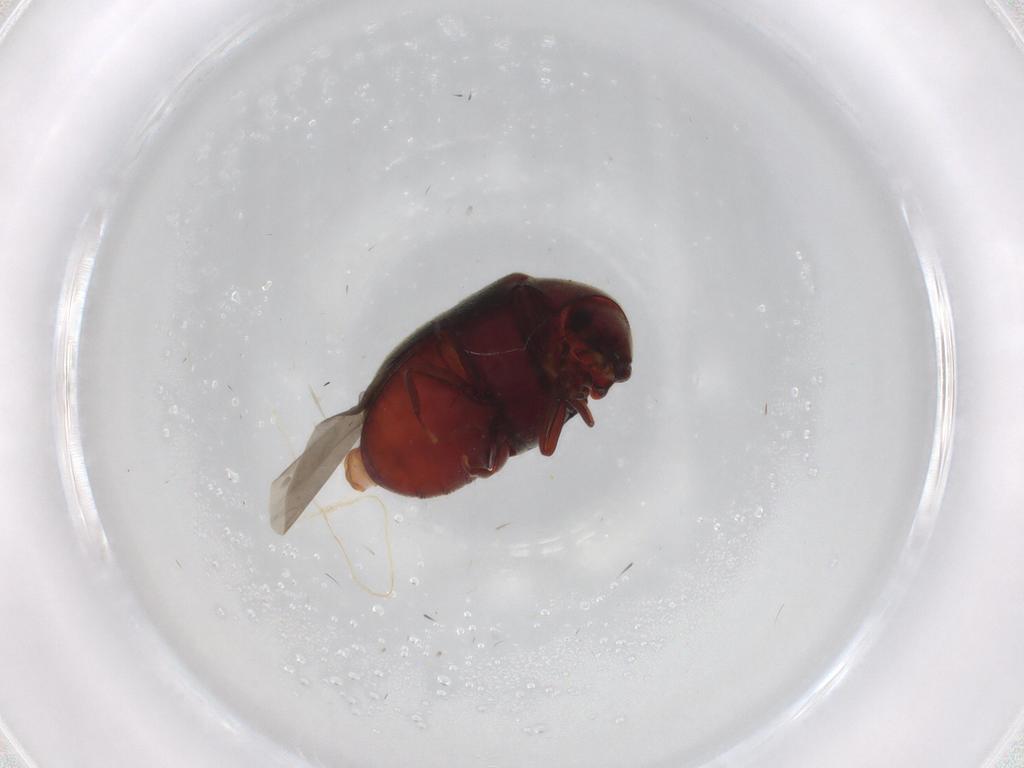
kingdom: Animalia
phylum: Arthropoda
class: Insecta
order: Coleoptera
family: Ptinidae
